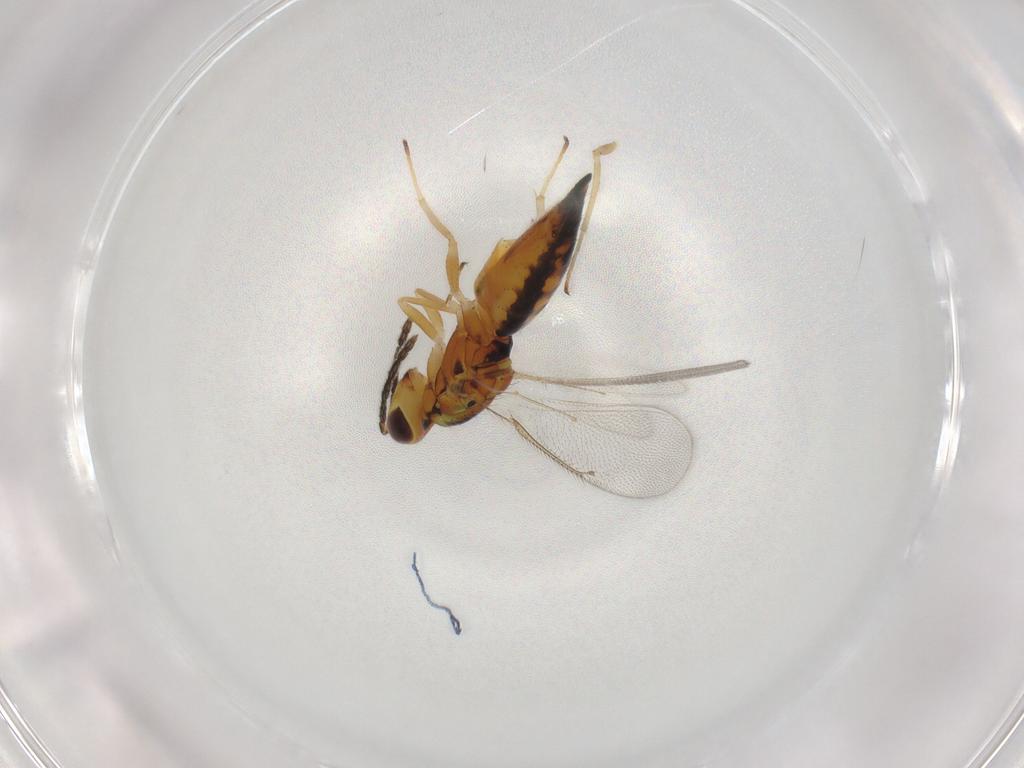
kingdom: Animalia
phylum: Arthropoda
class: Insecta
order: Hymenoptera
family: Eulophidae
